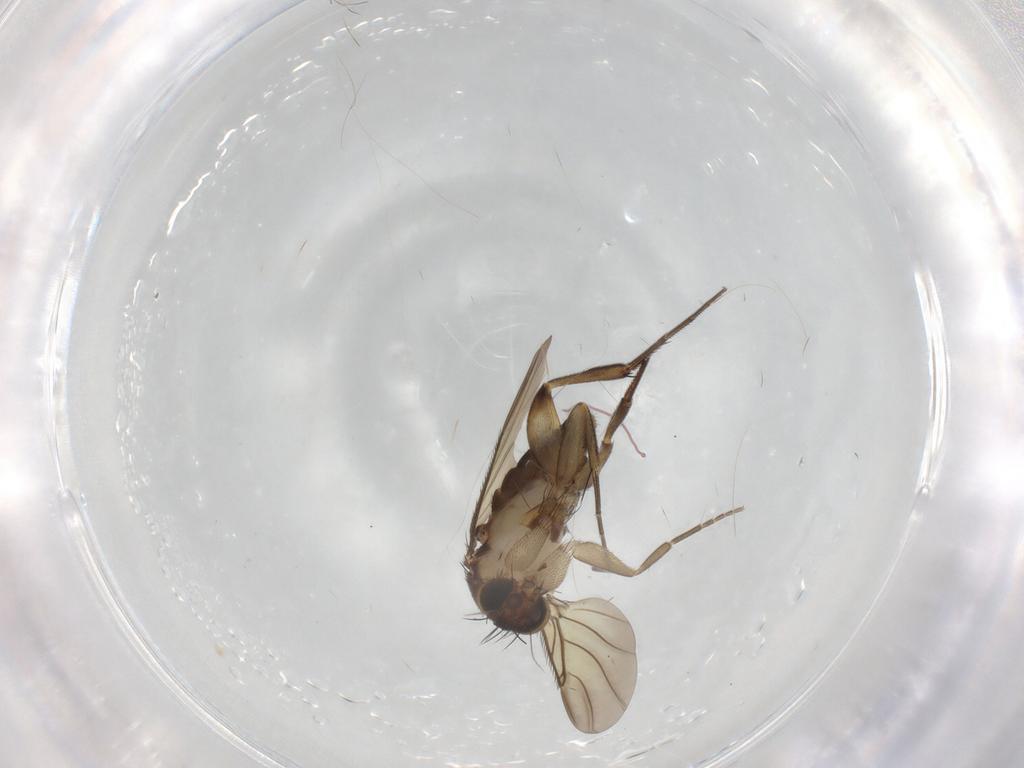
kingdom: Animalia
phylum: Arthropoda
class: Insecta
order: Diptera
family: Phoridae
